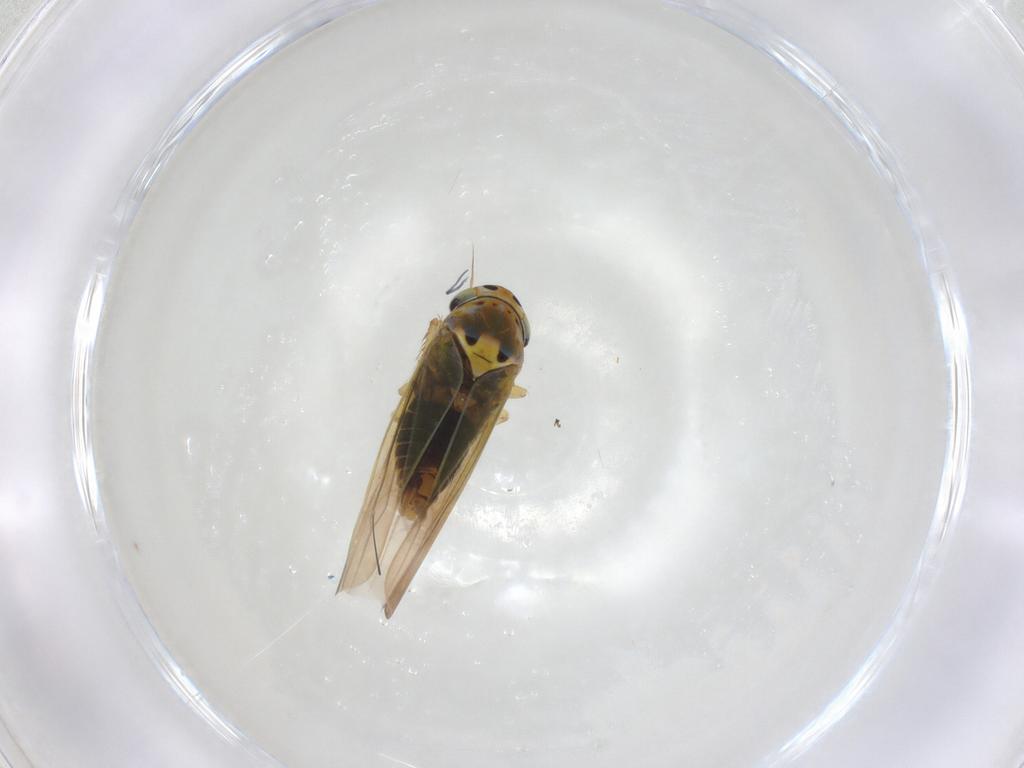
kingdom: Animalia
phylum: Arthropoda
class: Insecta
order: Hemiptera
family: Cicadellidae
